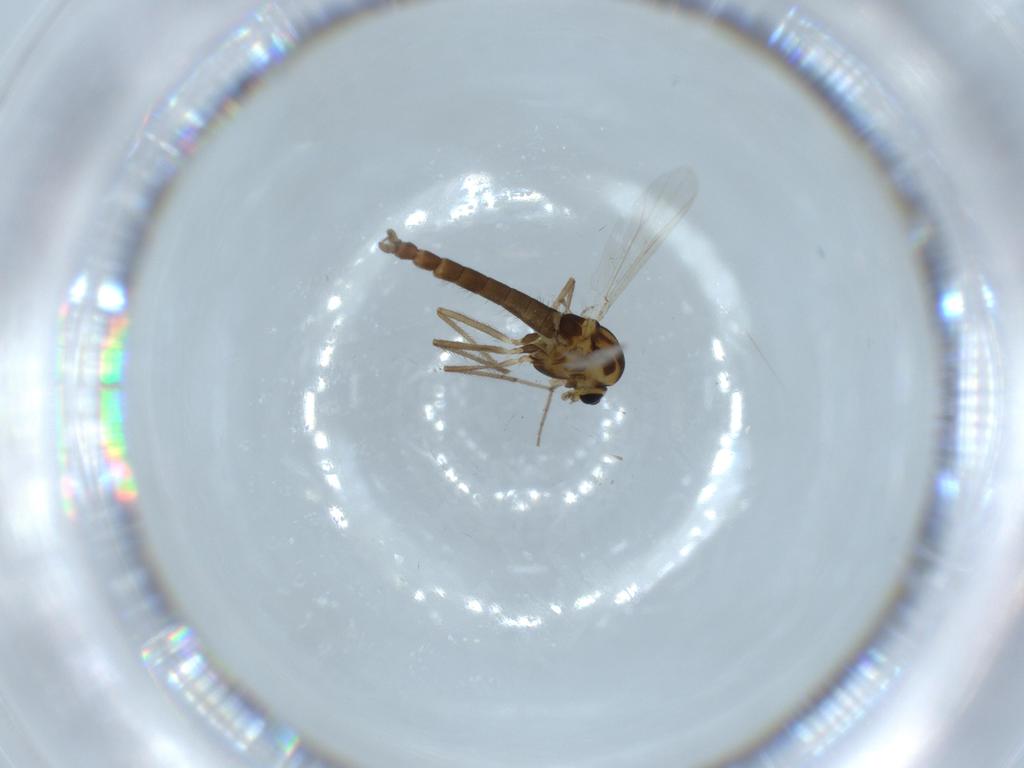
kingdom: Animalia
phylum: Arthropoda
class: Insecta
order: Diptera
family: Chironomidae
